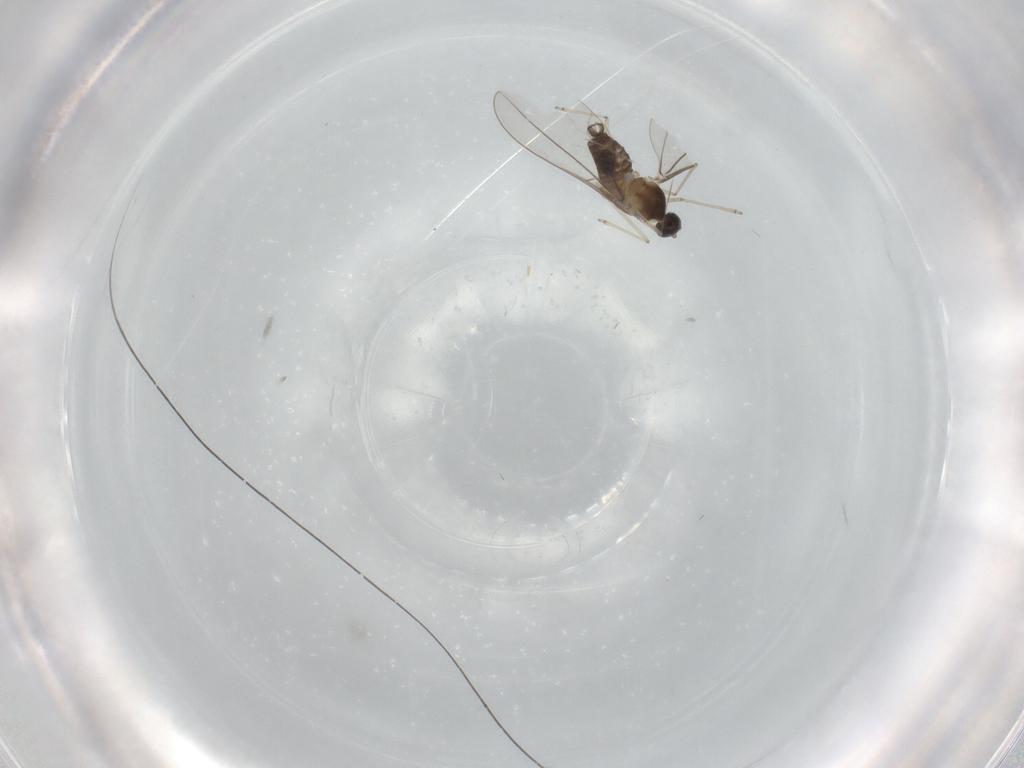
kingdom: Animalia
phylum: Arthropoda
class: Insecta
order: Diptera
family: Cecidomyiidae
